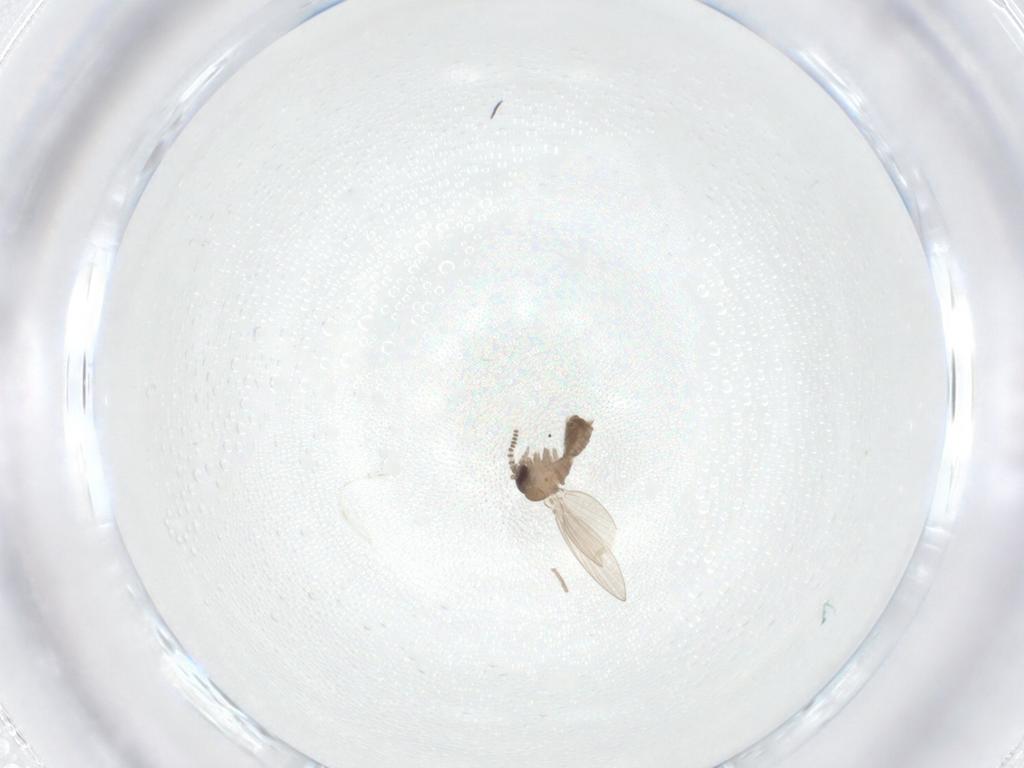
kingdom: Animalia
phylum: Arthropoda
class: Insecta
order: Diptera
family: Psychodidae
